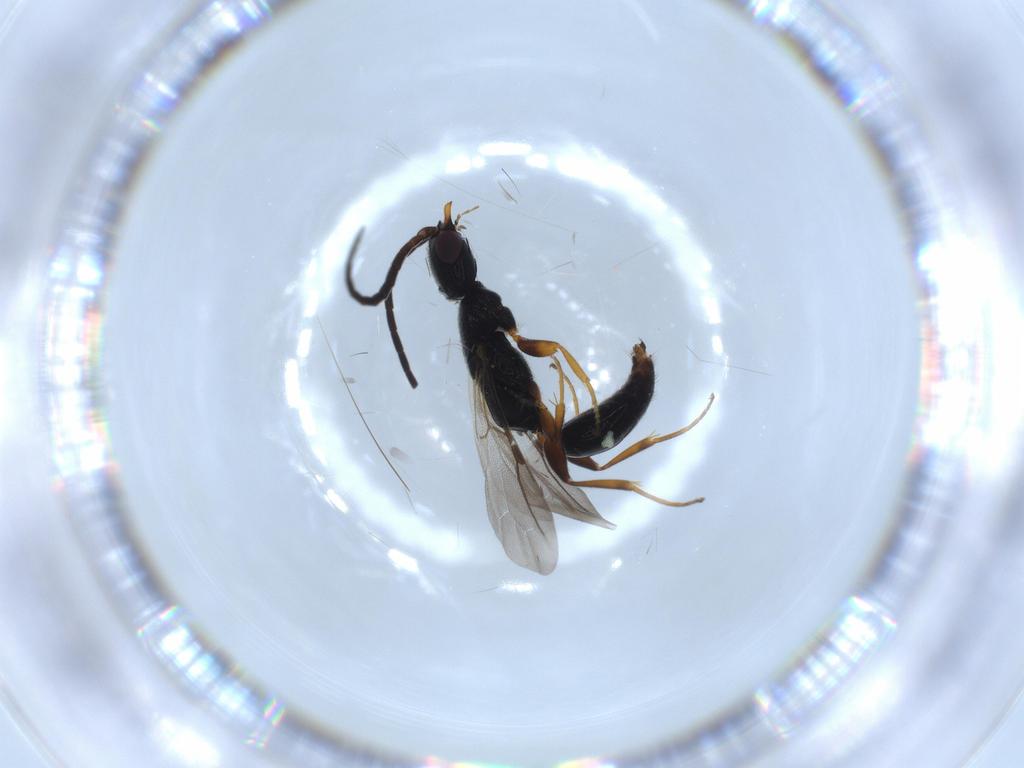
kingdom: Animalia
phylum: Arthropoda
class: Insecta
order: Hymenoptera
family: Bethylidae
